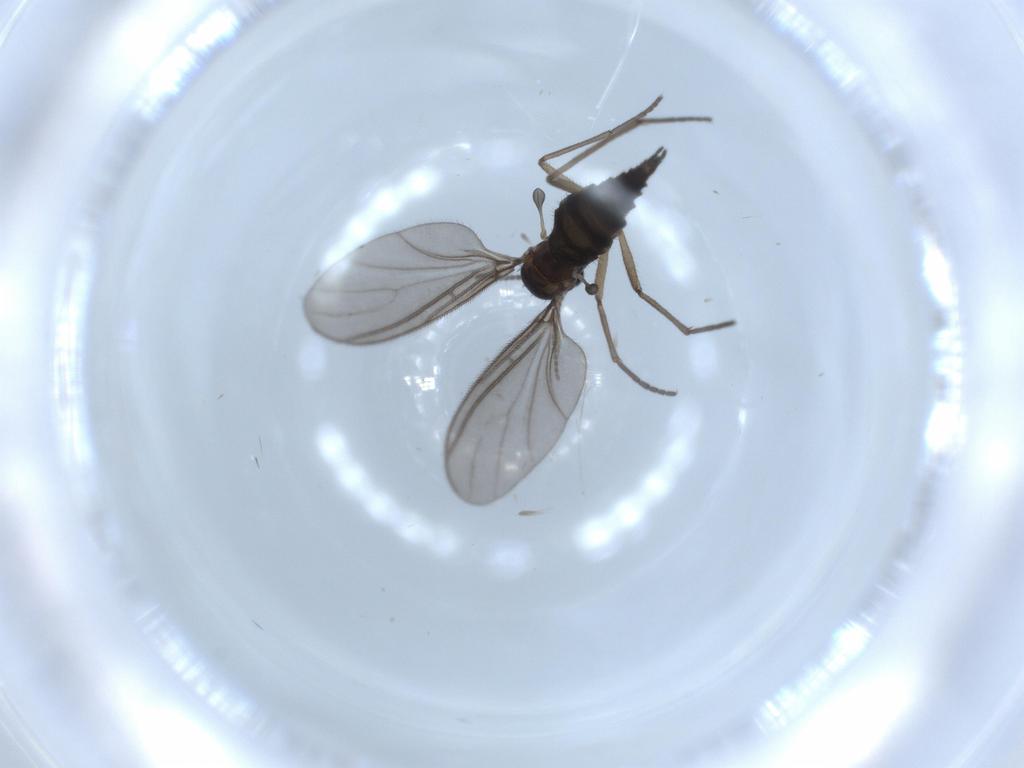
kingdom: Animalia
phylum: Arthropoda
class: Insecta
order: Diptera
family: Sciaridae
